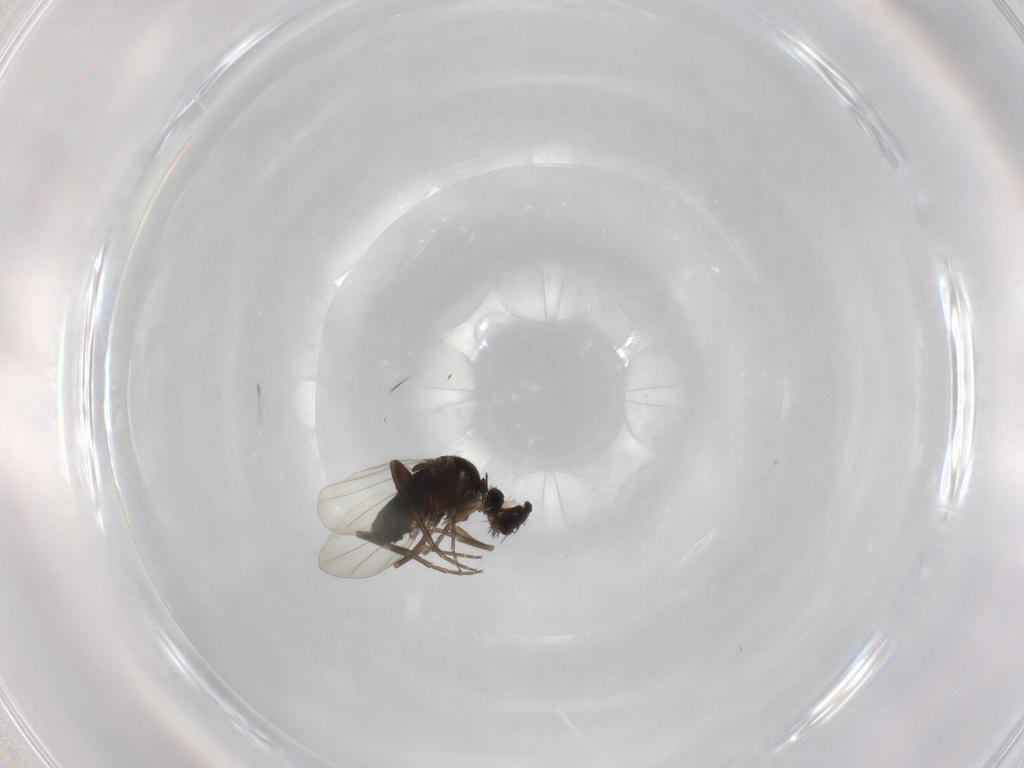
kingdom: Animalia
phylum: Arthropoda
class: Insecta
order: Diptera
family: Phoridae
